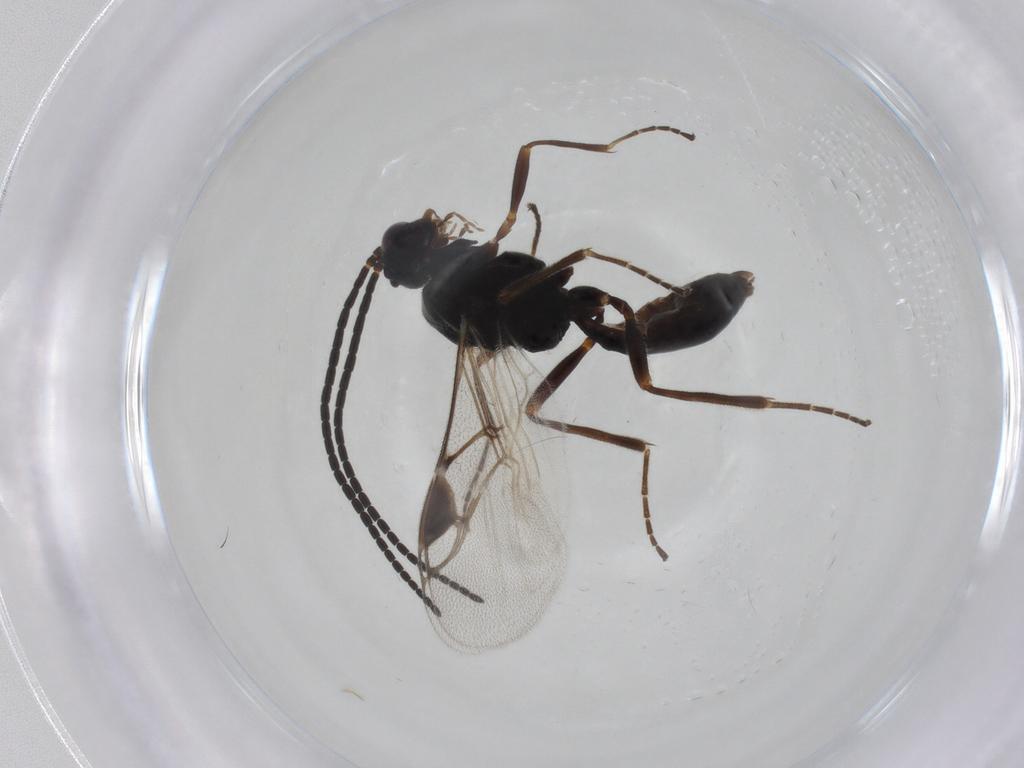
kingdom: Animalia
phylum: Arthropoda
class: Insecta
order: Hymenoptera
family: Braconidae
